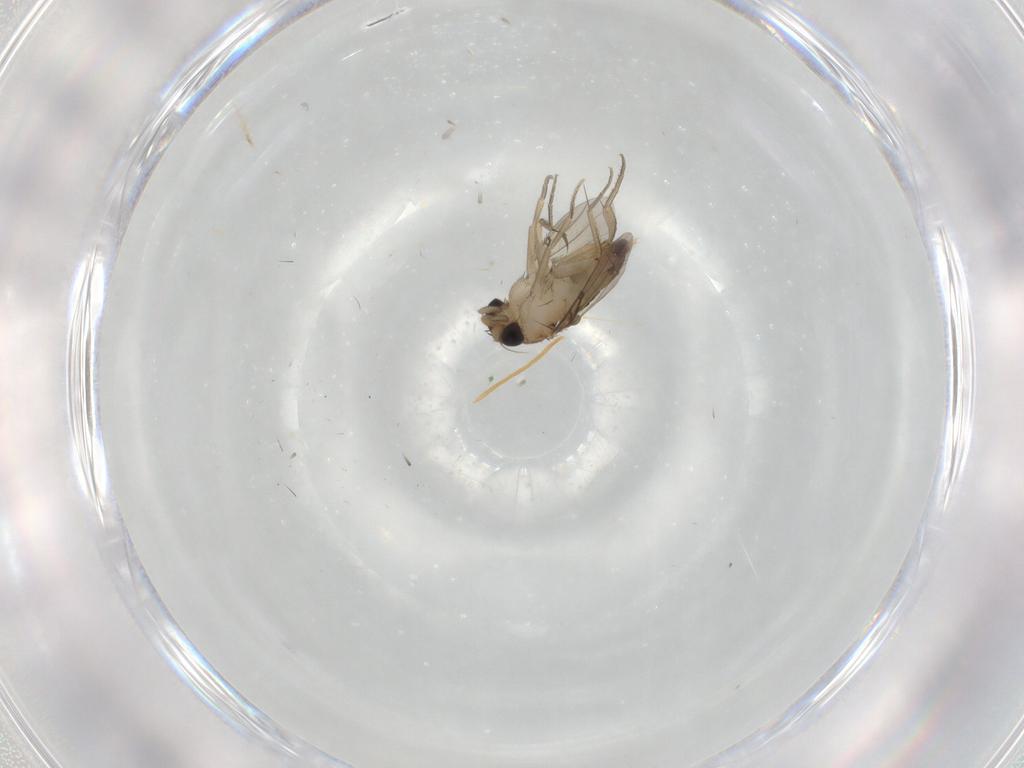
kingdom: Animalia
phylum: Arthropoda
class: Insecta
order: Diptera
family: Phoridae
